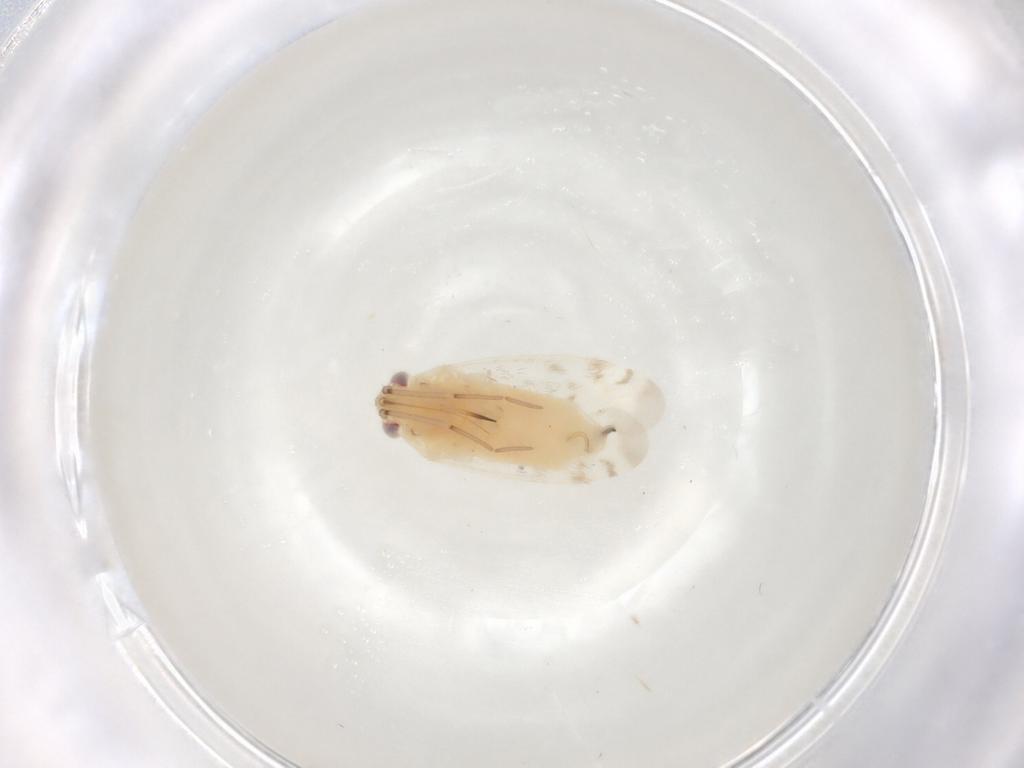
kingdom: Animalia
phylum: Arthropoda
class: Insecta
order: Hemiptera
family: Miridae
